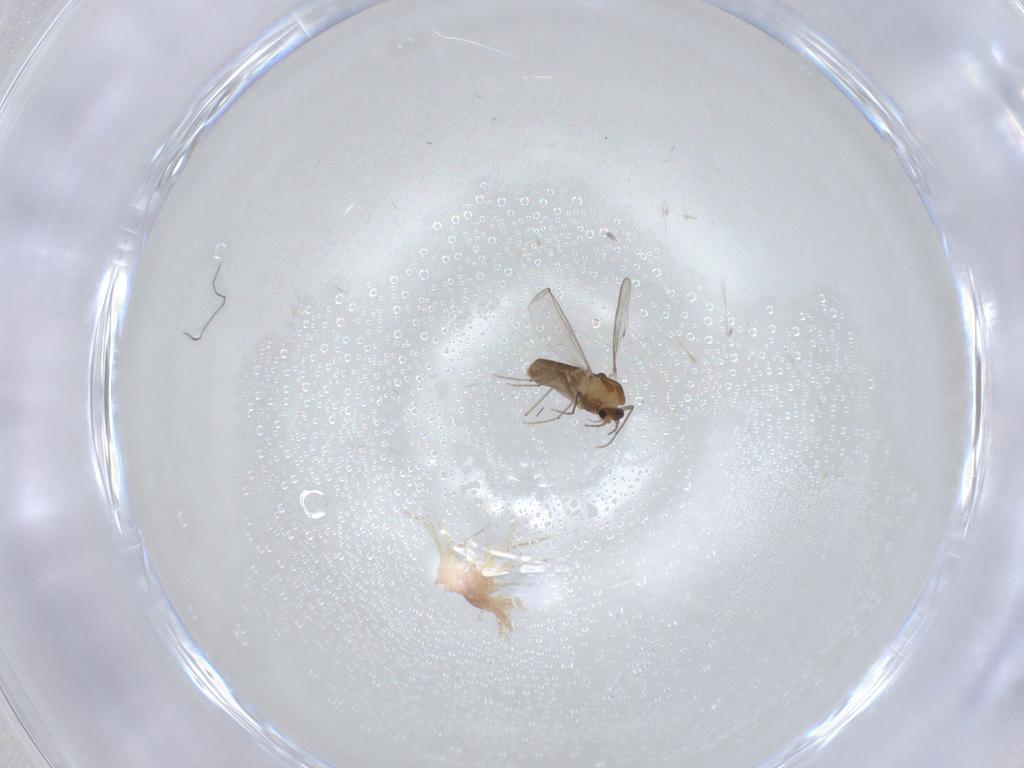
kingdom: Animalia
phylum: Arthropoda
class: Insecta
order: Diptera
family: Chironomidae
